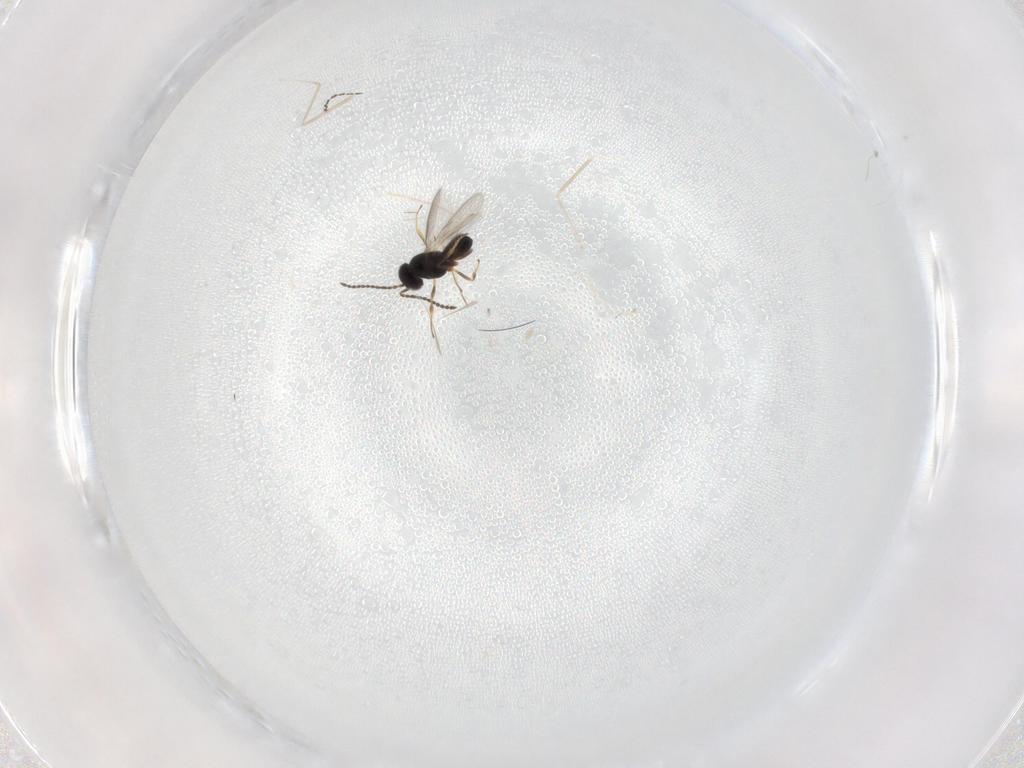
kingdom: Animalia
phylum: Arthropoda
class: Insecta
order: Hymenoptera
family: Scelionidae
